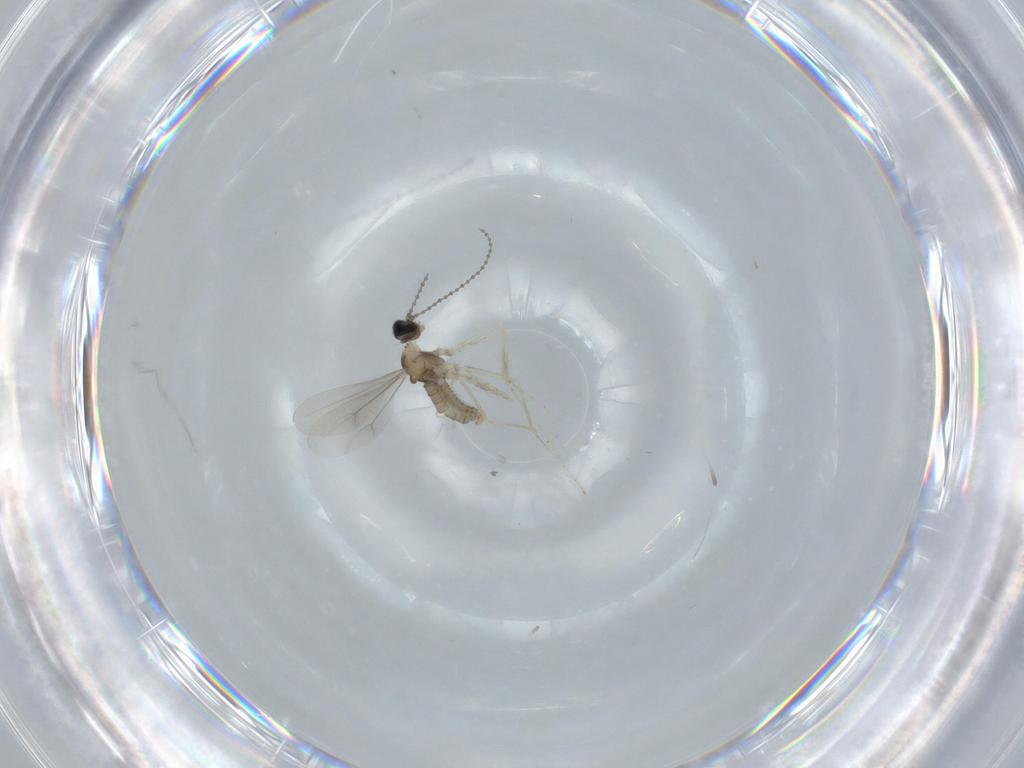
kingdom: Animalia
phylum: Arthropoda
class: Insecta
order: Diptera
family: Cecidomyiidae
